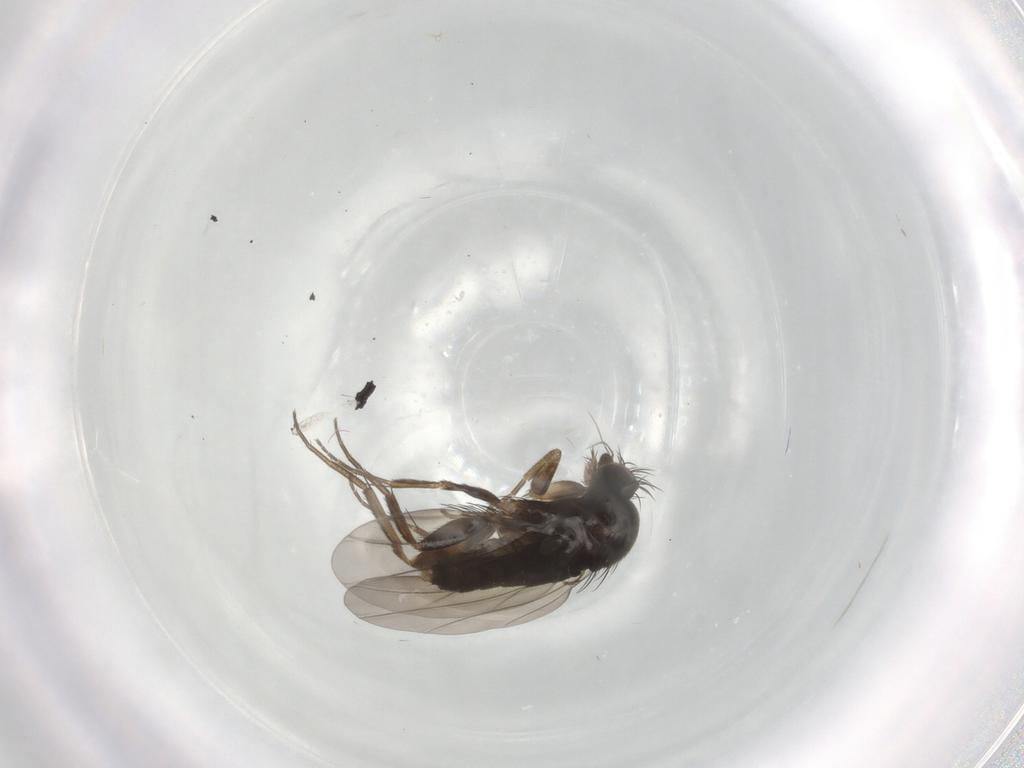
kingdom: Animalia
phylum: Arthropoda
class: Insecta
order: Diptera
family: Phoridae
